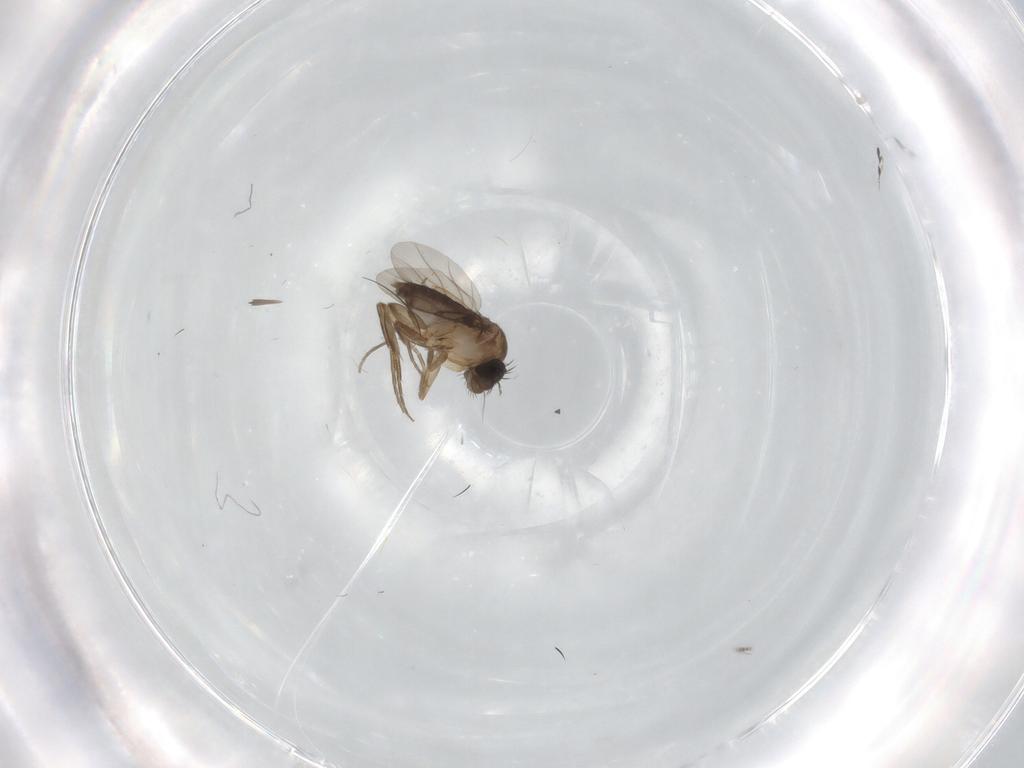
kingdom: Animalia
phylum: Arthropoda
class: Insecta
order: Diptera
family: Phoridae
